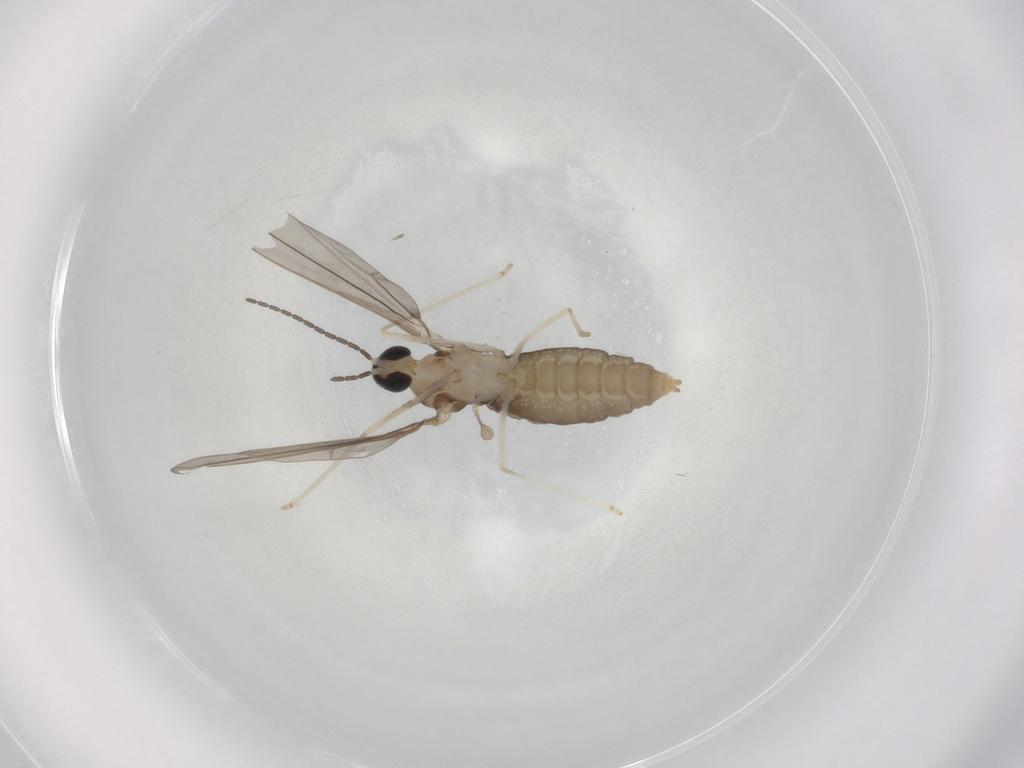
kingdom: Animalia
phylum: Arthropoda
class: Insecta
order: Diptera
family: Cecidomyiidae
